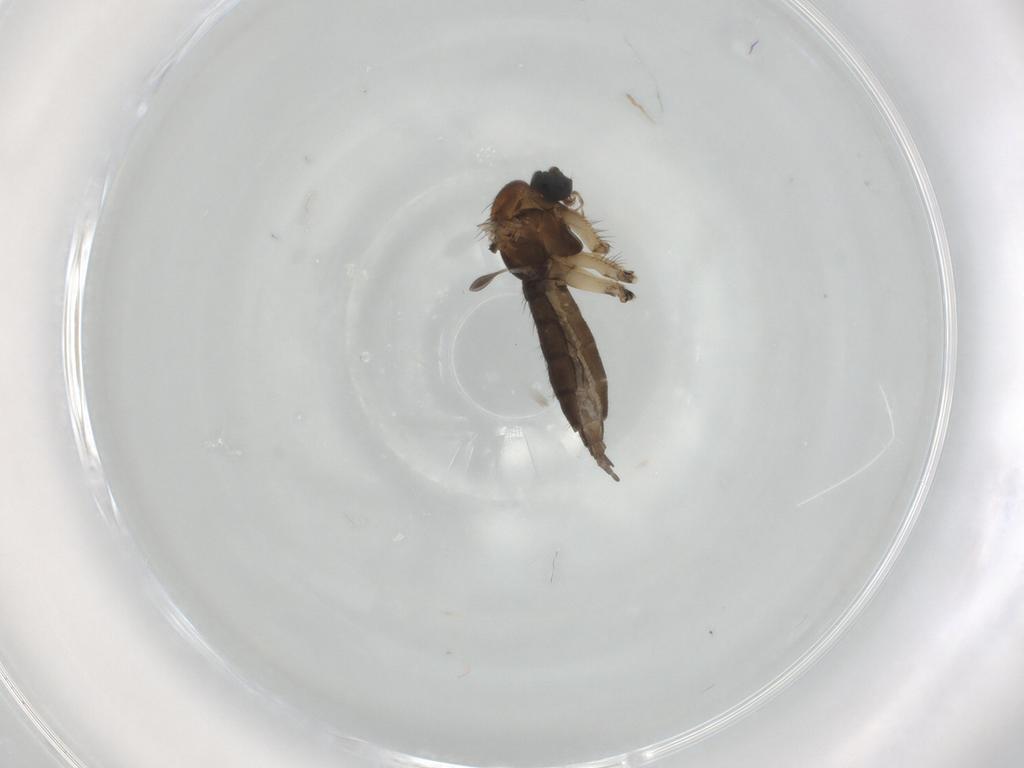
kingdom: Animalia
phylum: Arthropoda
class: Insecta
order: Diptera
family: Sciaridae
